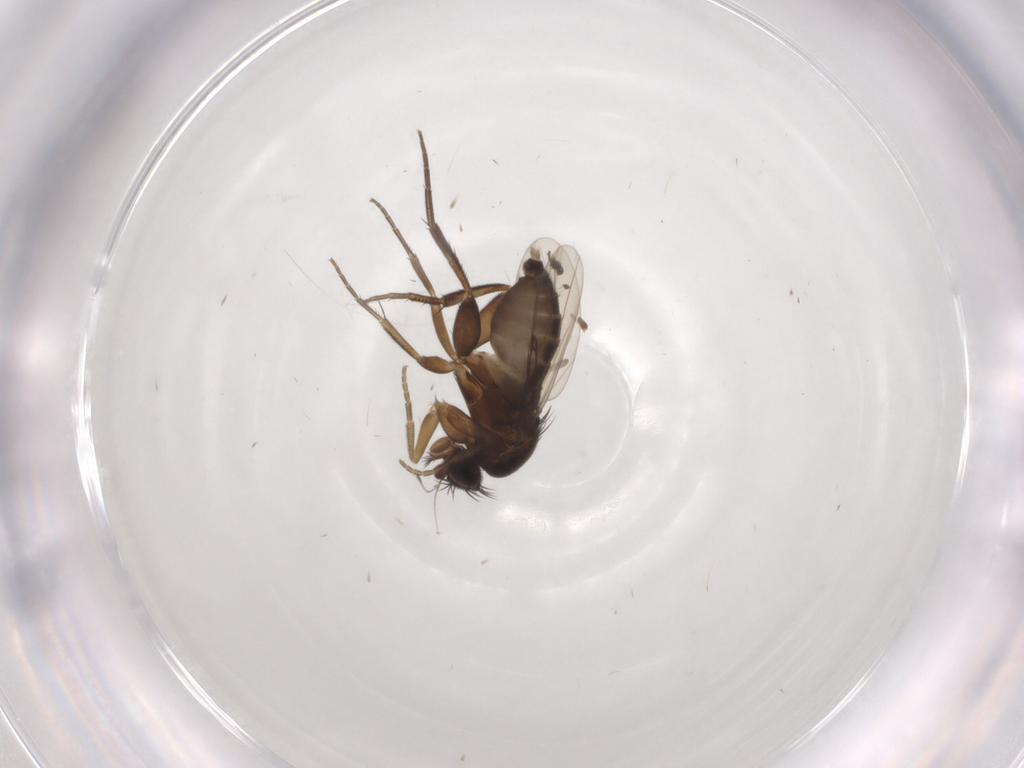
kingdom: Animalia
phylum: Arthropoda
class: Insecta
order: Diptera
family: Phoridae
